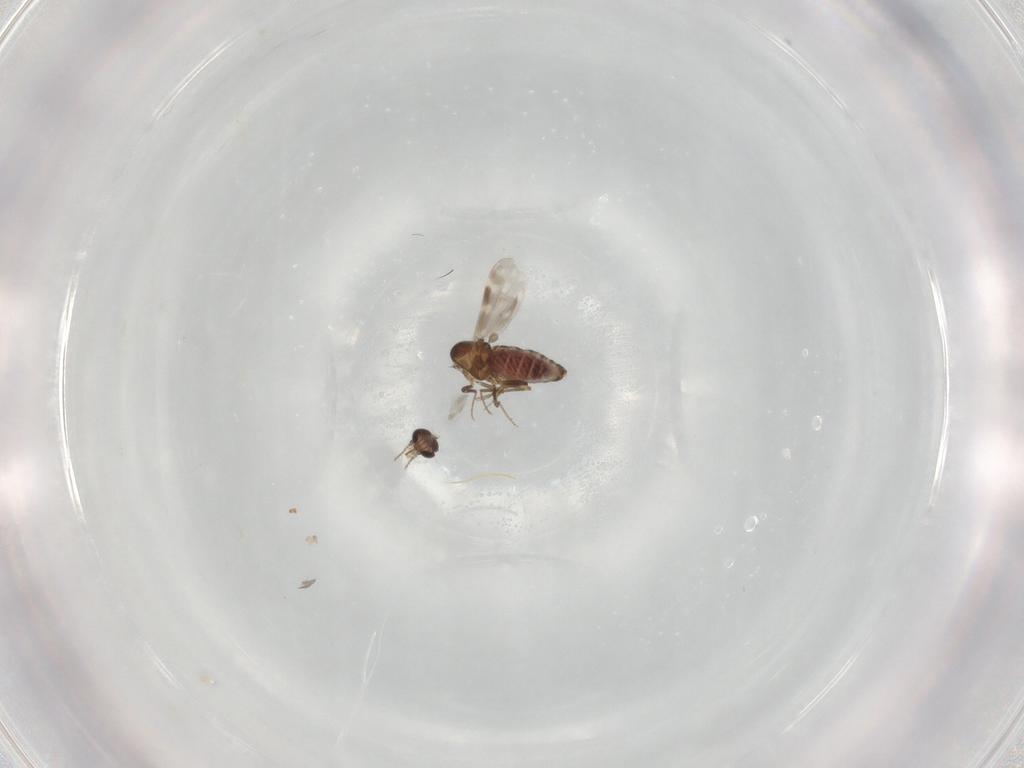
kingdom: Animalia
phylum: Arthropoda
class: Insecta
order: Diptera
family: Ceratopogonidae
